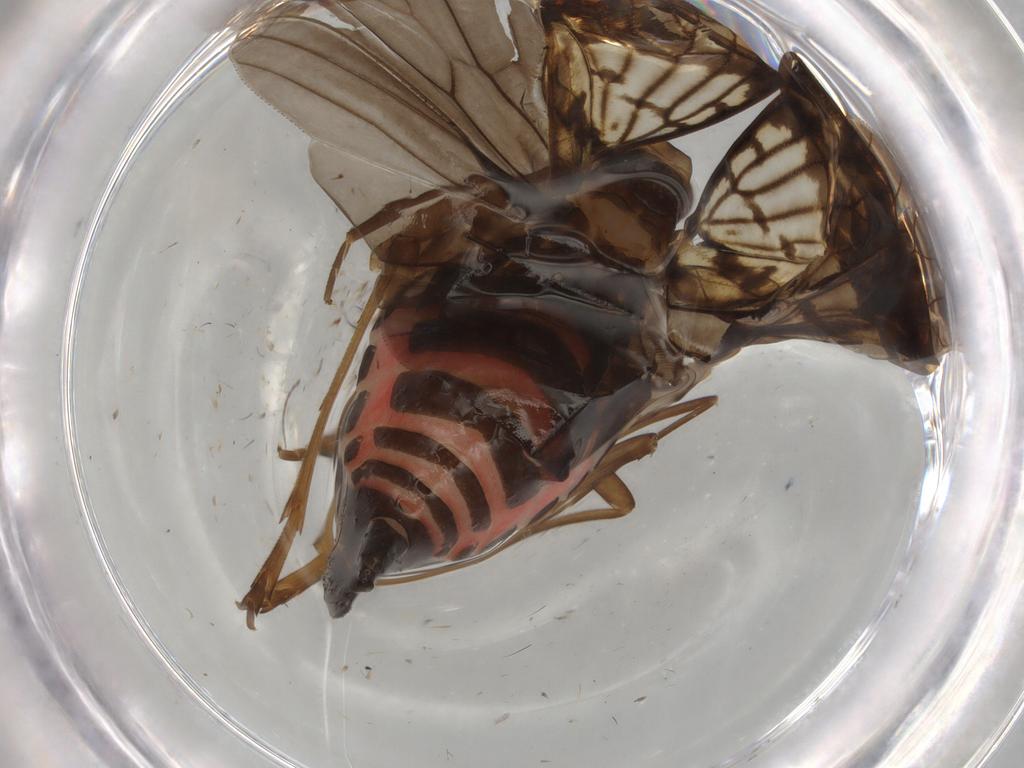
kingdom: Animalia
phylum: Arthropoda
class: Insecta
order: Hemiptera
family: Cixiidae
